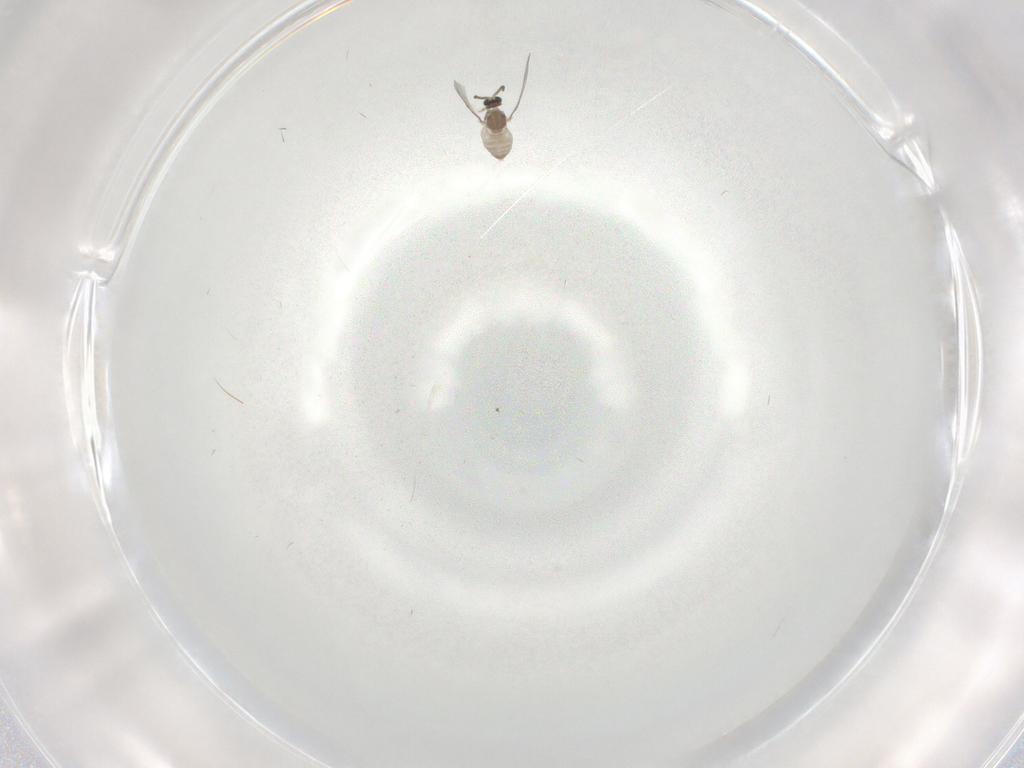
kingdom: Animalia
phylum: Arthropoda
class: Insecta
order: Diptera
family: Cecidomyiidae
